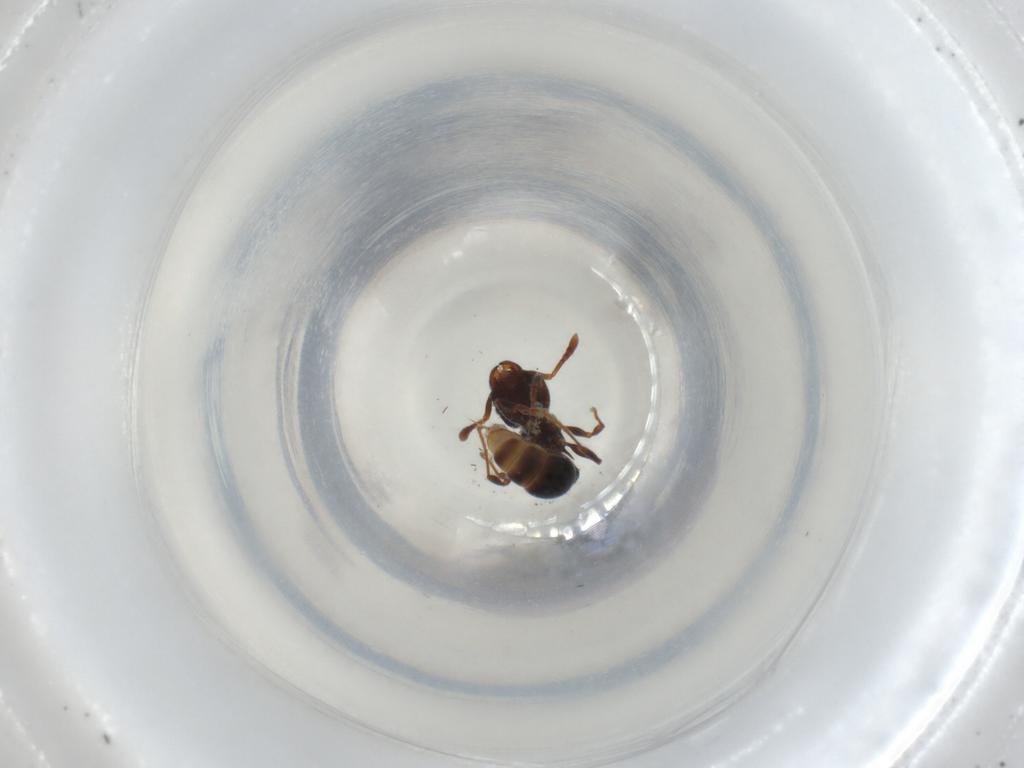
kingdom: Animalia
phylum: Arthropoda
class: Insecta
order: Hymenoptera
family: Formicidae
